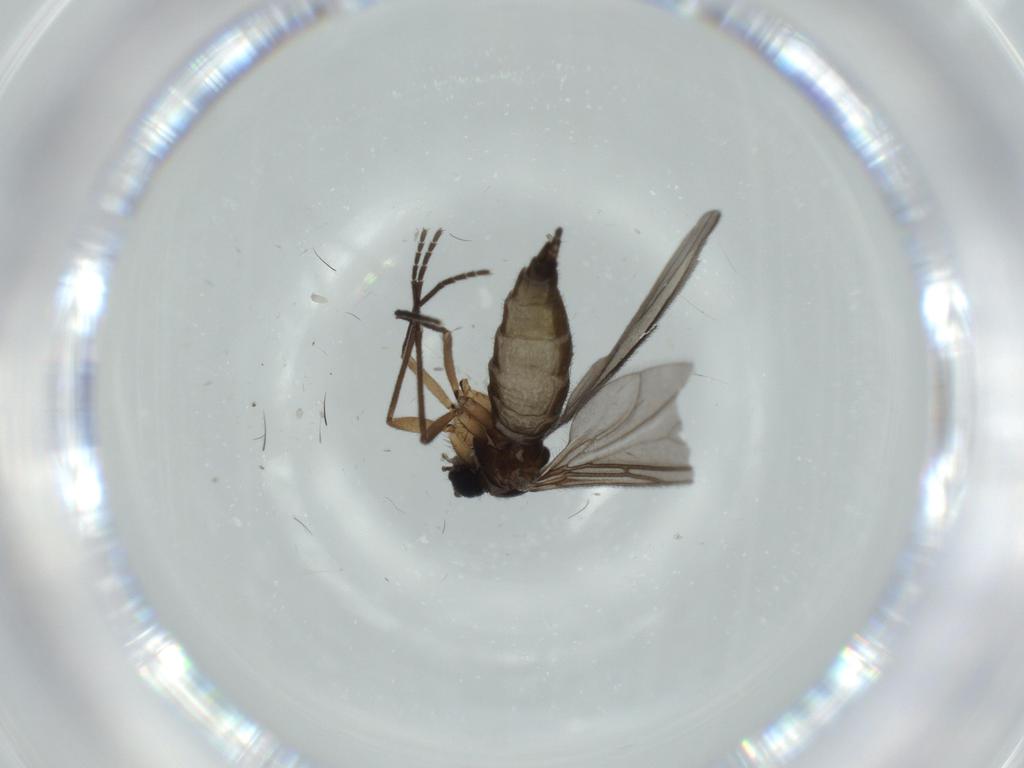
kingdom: Animalia
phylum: Arthropoda
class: Insecta
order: Diptera
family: Sciaridae
